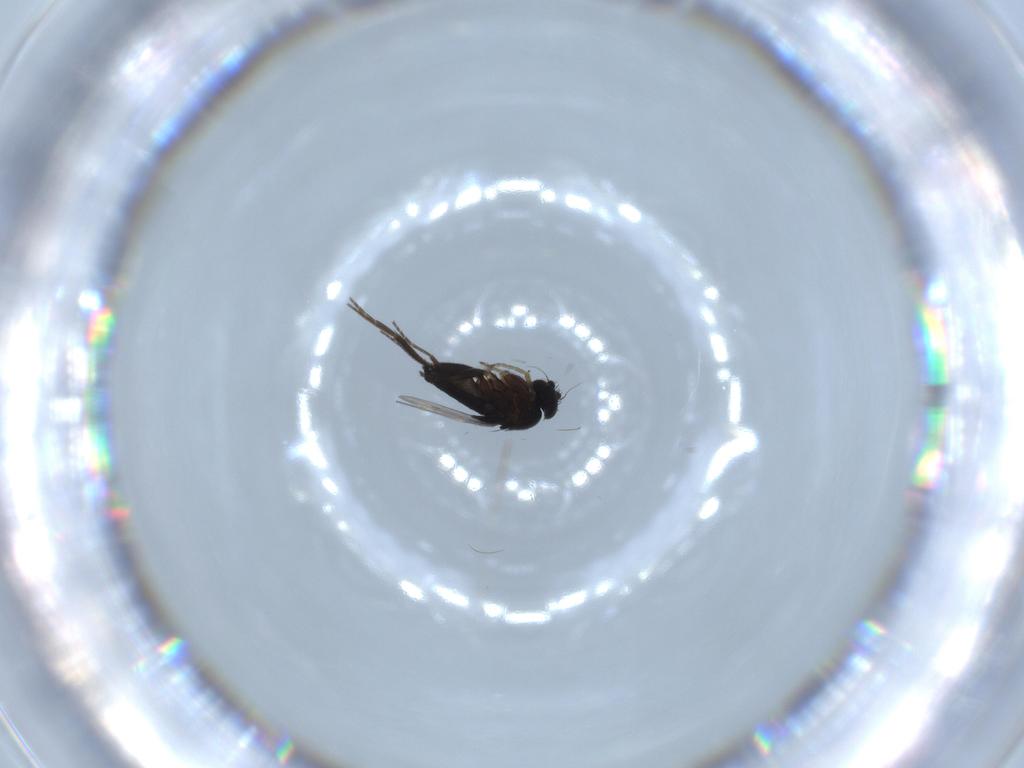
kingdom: Animalia
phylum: Arthropoda
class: Insecta
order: Diptera
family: Phoridae
